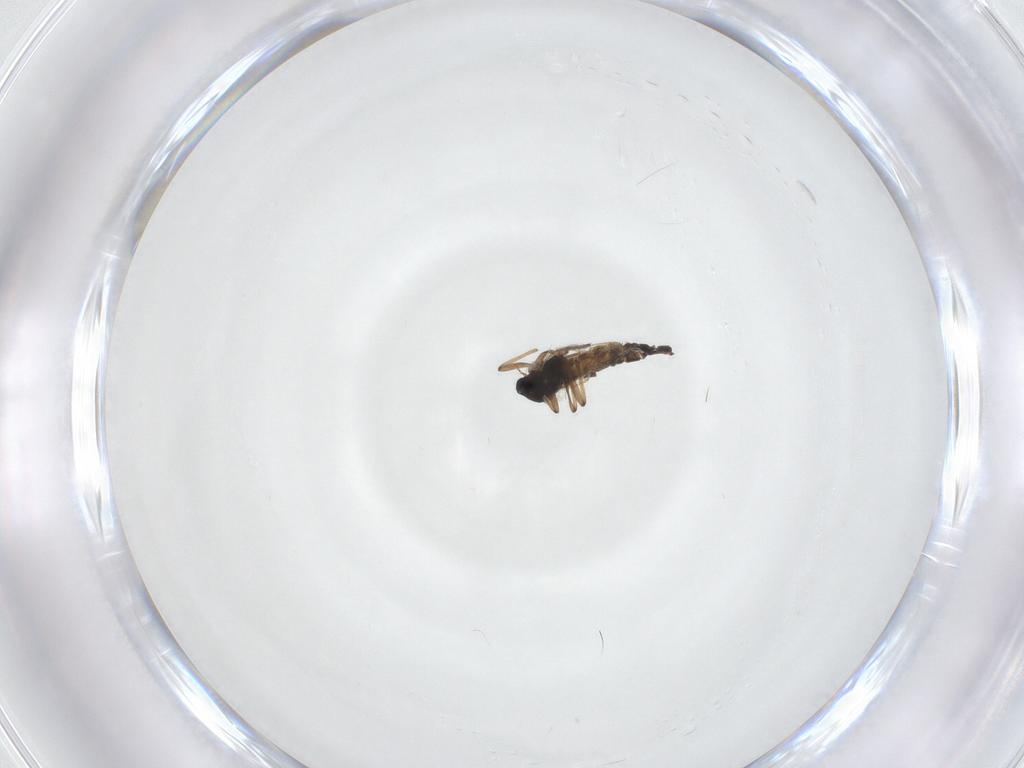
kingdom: Animalia
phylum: Arthropoda
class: Insecta
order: Diptera
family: Chironomidae
